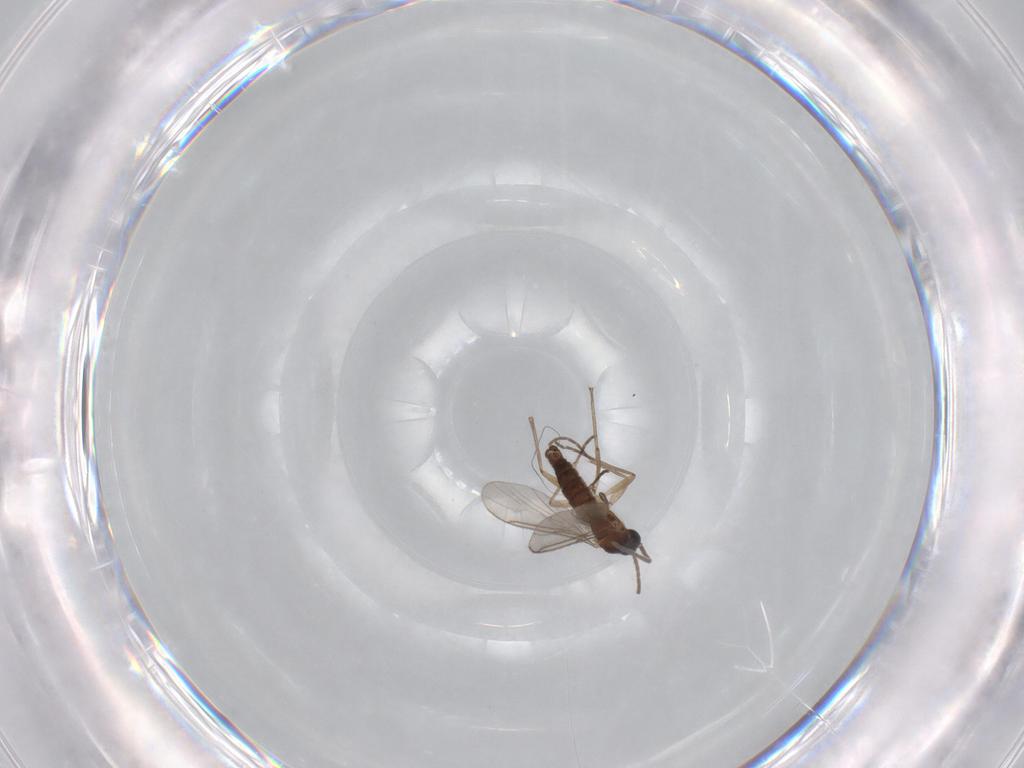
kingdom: Animalia
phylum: Arthropoda
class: Insecta
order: Diptera
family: Sciaridae
